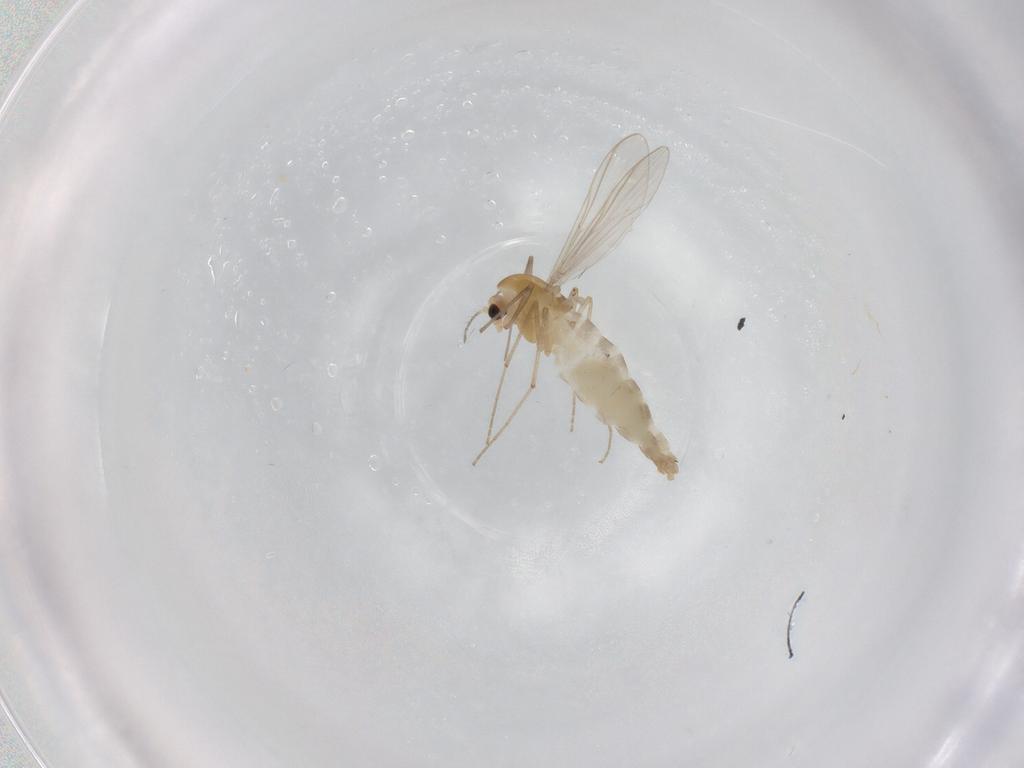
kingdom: Animalia
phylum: Arthropoda
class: Insecta
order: Diptera
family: Chironomidae
